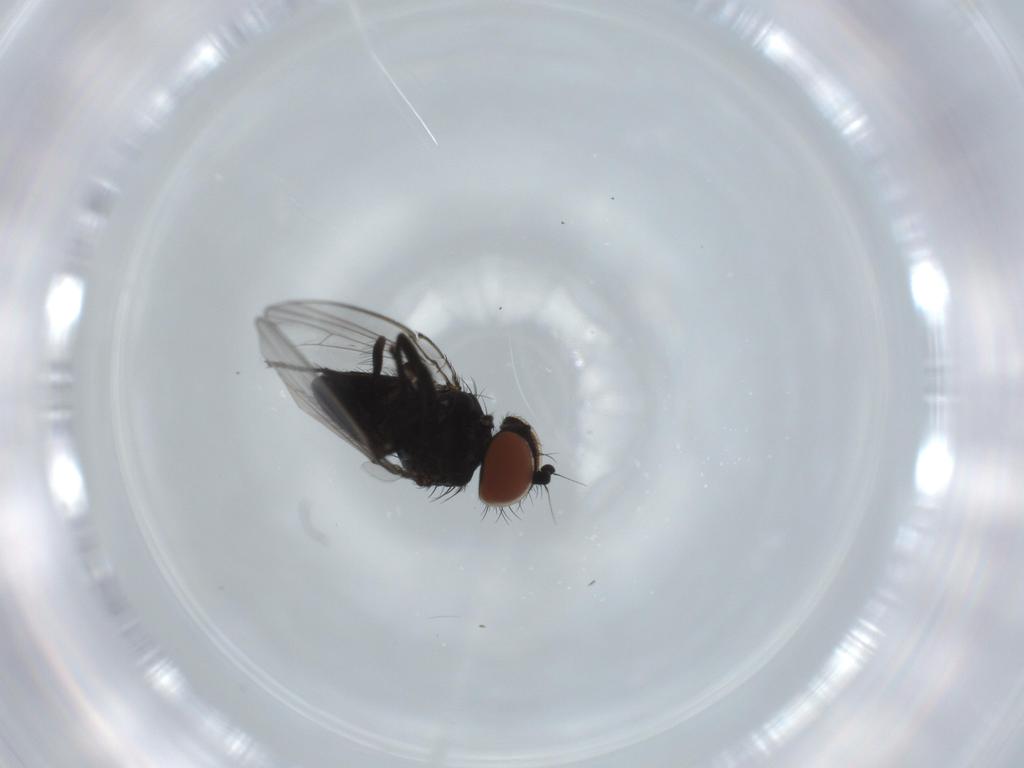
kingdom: Animalia
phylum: Arthropoda
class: Insecta
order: Diptera
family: Milichiidae
